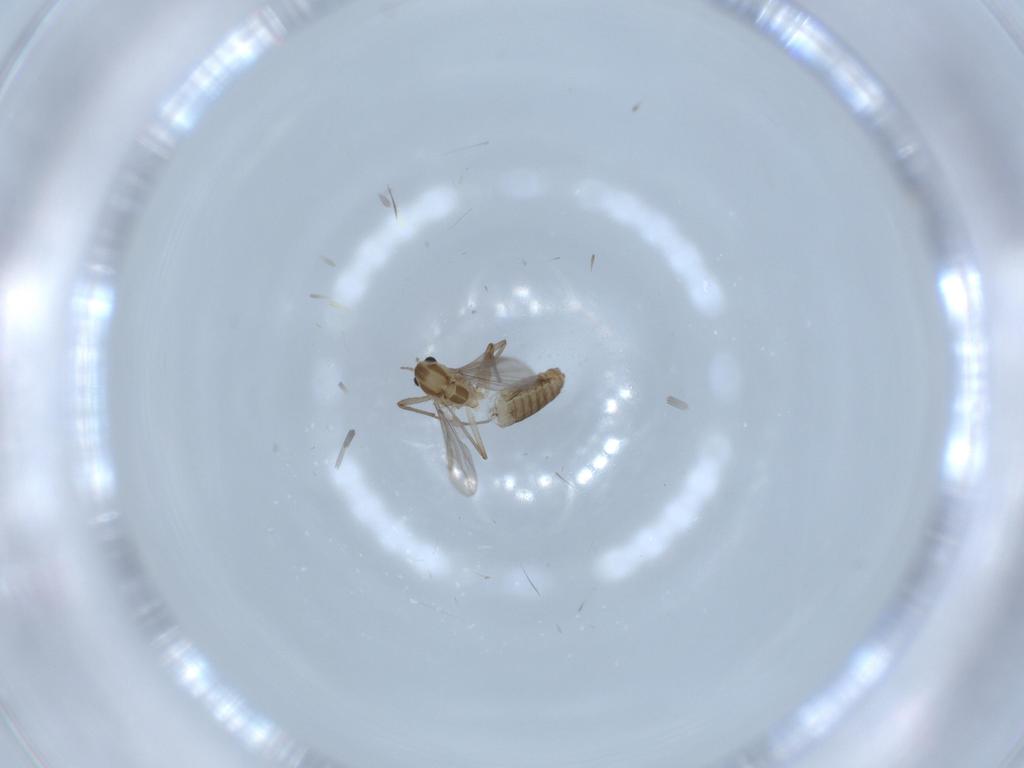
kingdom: Animalia
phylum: Arthropoda
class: Insecta
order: Diptera
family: Chironomidae
